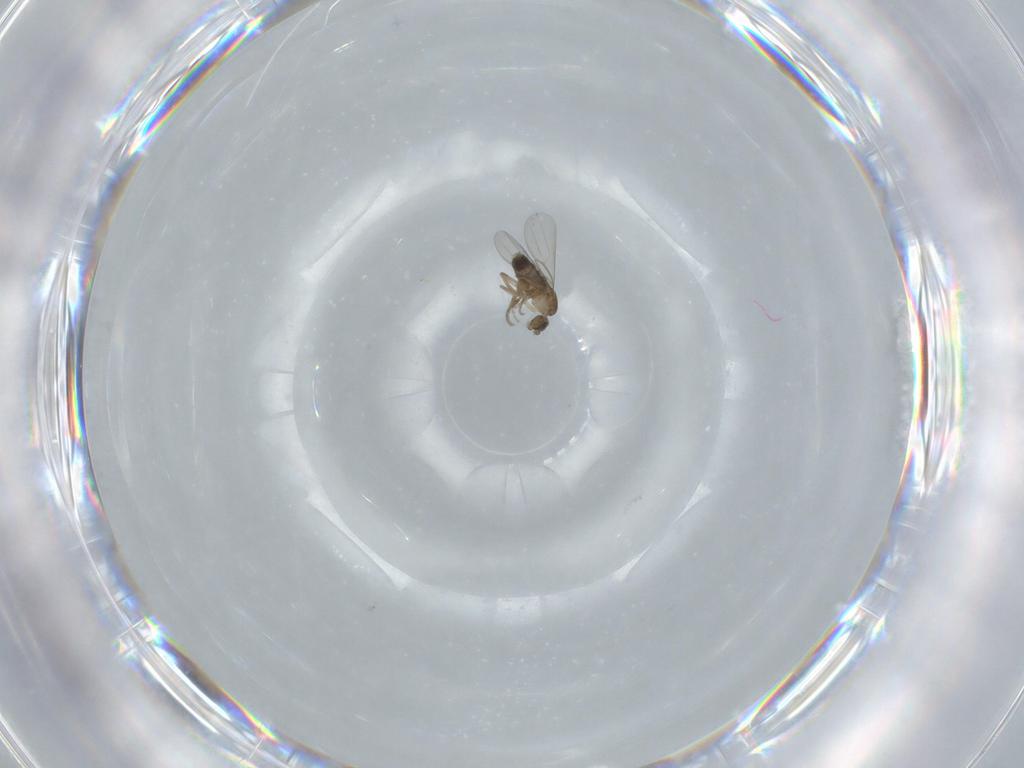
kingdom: Animalia
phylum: Arthropoda
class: Insecta
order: Diptera
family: Phoridae
